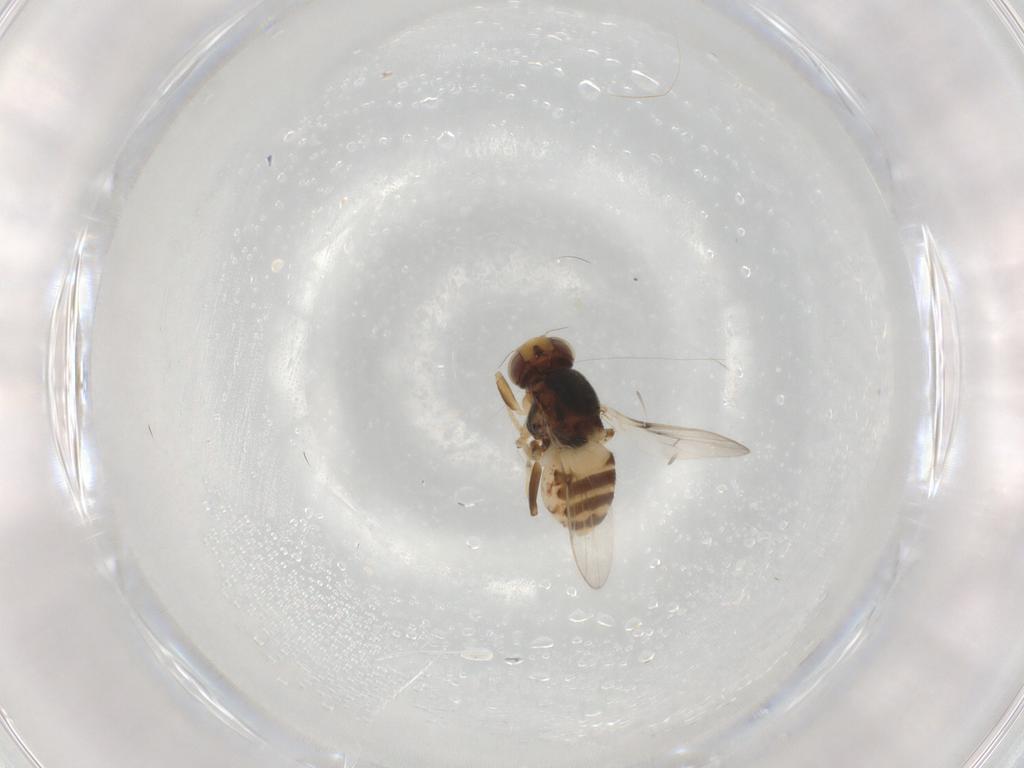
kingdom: Animalia
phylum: Arthropoda
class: Insecta
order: Diptera
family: Chloropidae
